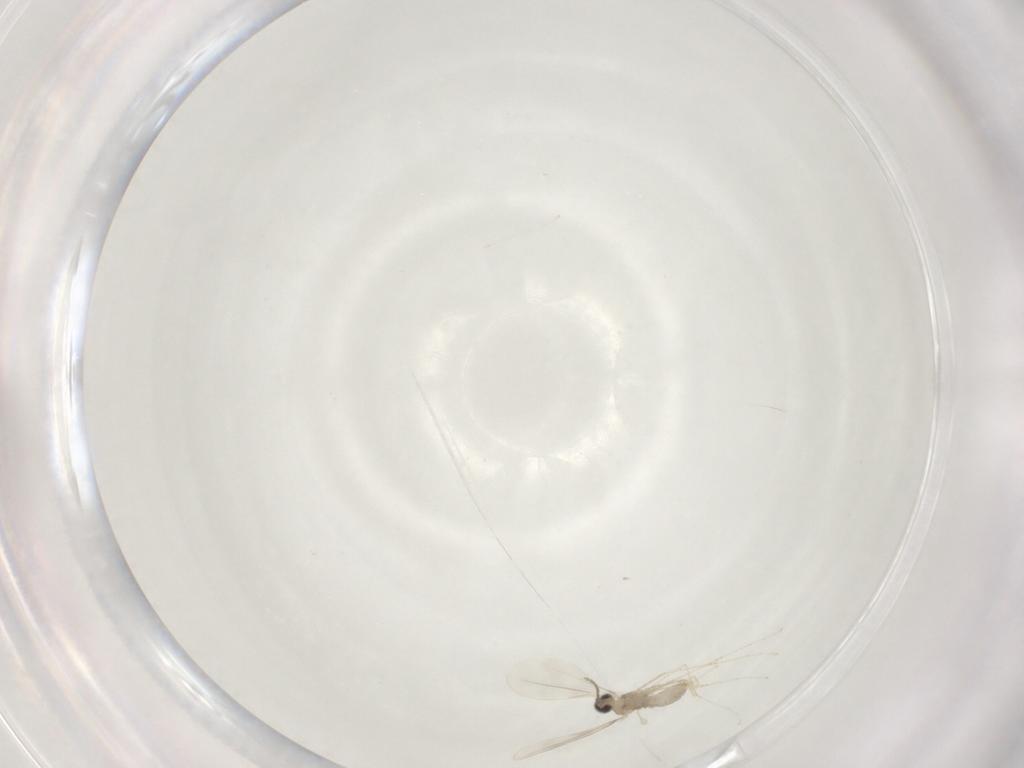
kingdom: Animalia
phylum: Arthropoda
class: Insecta
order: Diptera
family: Cecidomyiidae
